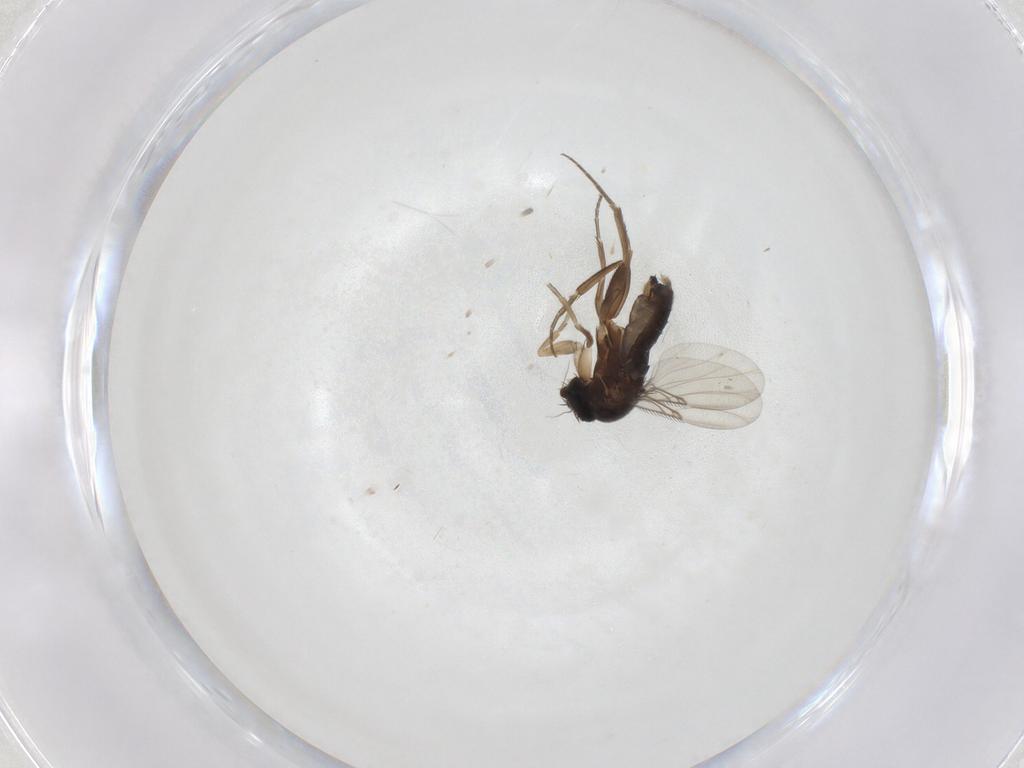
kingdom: Animalia
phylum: Arthropoda
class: Insecta
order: Diptera
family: Phoridae
